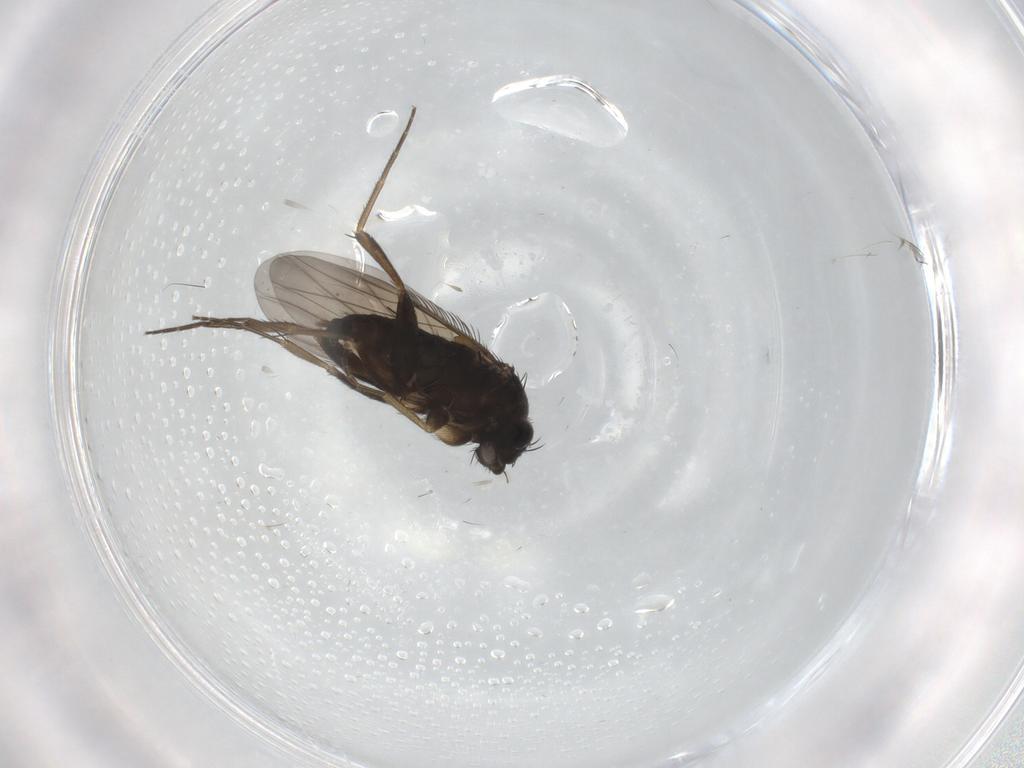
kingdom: Animalia
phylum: Arthropoda
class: Insecta
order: Diptera
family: Phoridae
